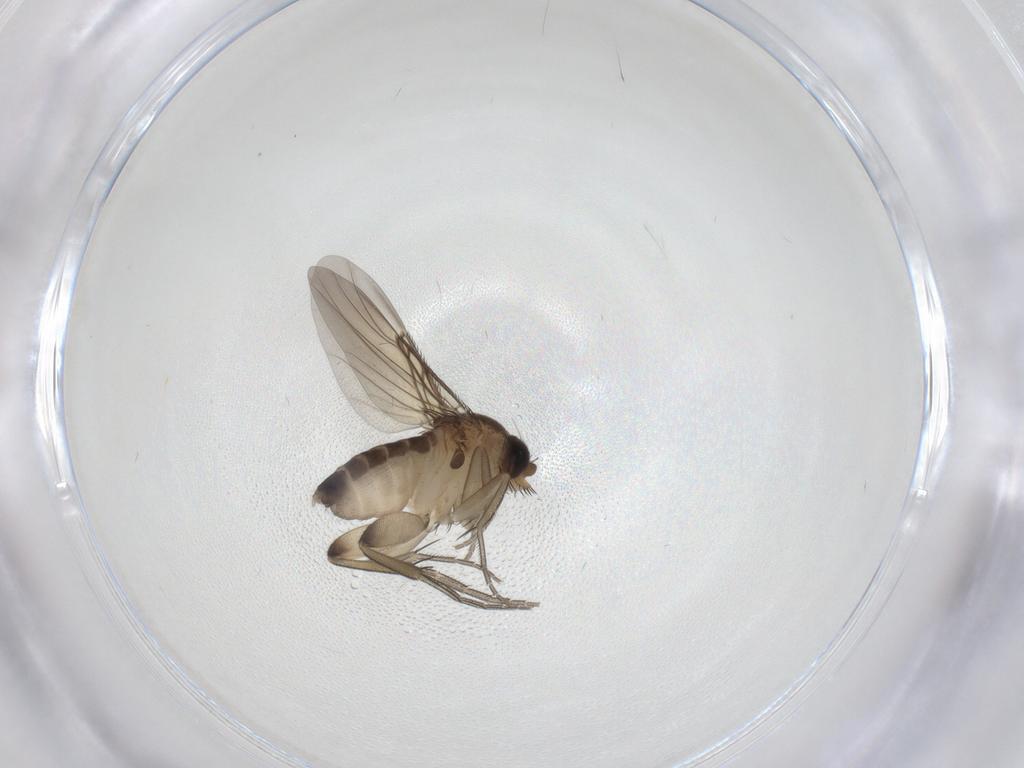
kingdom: Animalia
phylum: Arthropoda
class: Insecta
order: Diptera
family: Phoridae
